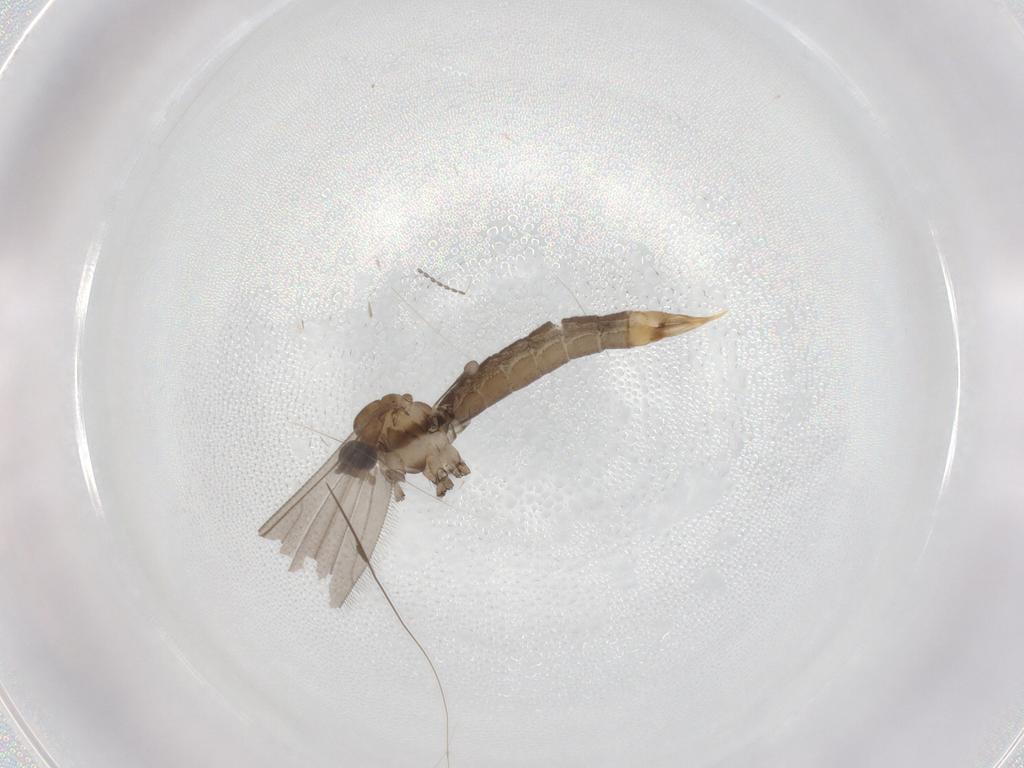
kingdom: Animalia
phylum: Arthropoda
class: Insecta
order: Diptera
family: Limoniidae
